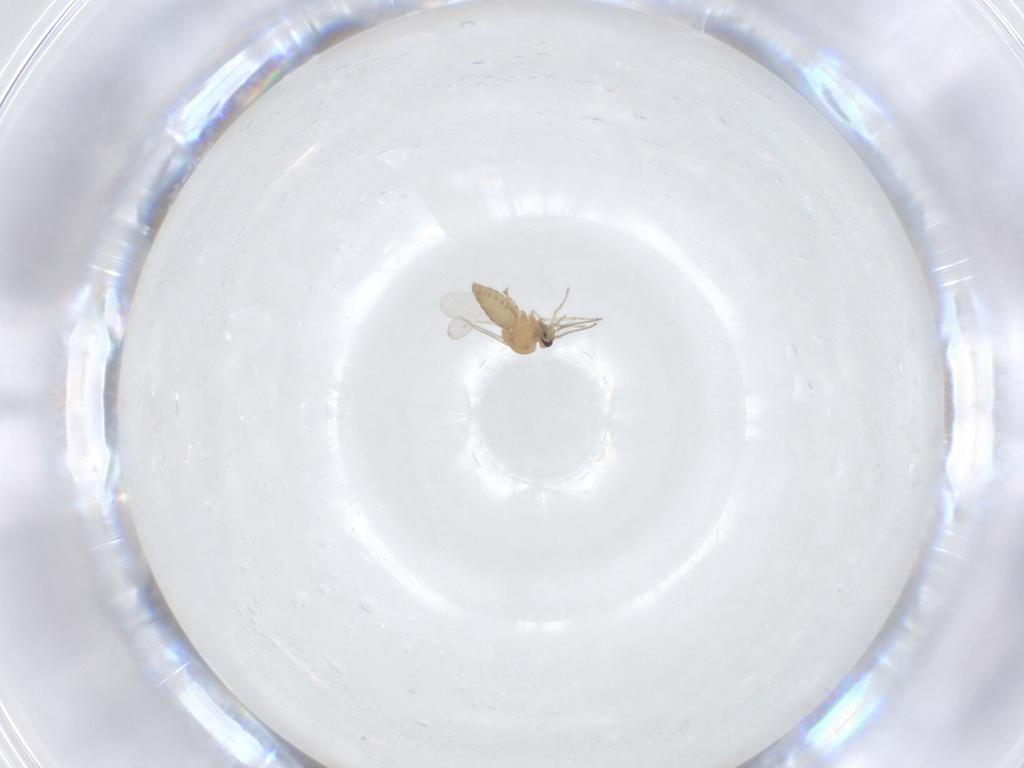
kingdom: Animalia
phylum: Arthropoda
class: Insecta
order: Diptera
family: Ceratopogonidae
